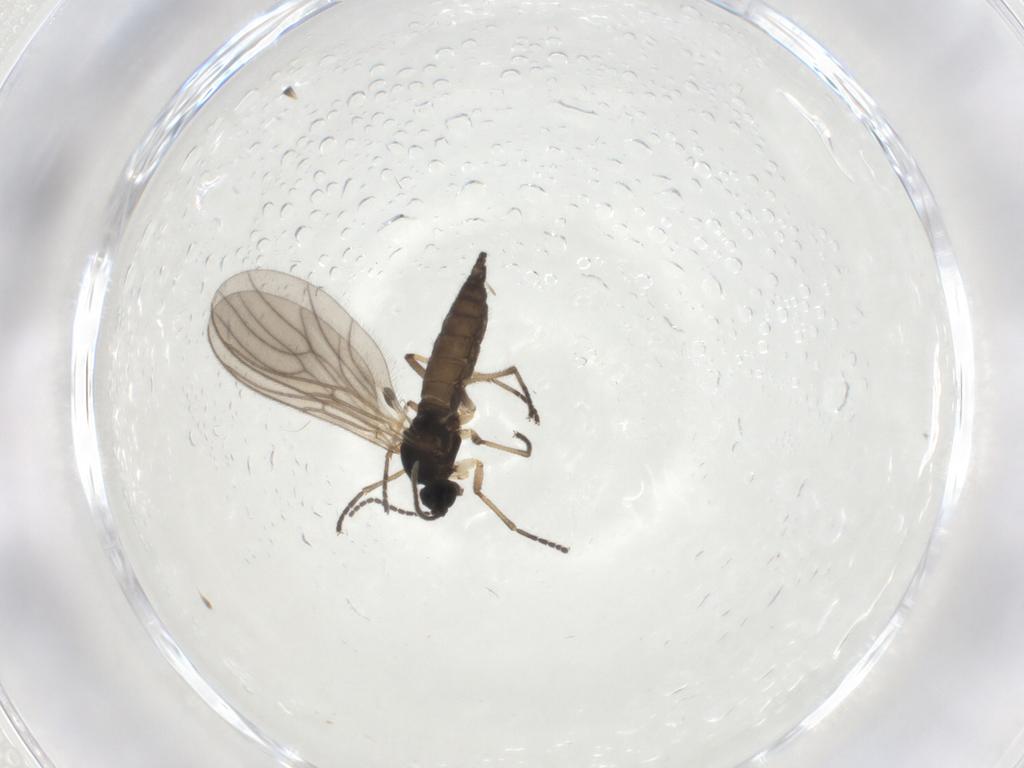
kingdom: Animalia
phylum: Arthropoda
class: Insecta
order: Diptera
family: Sciaridae
